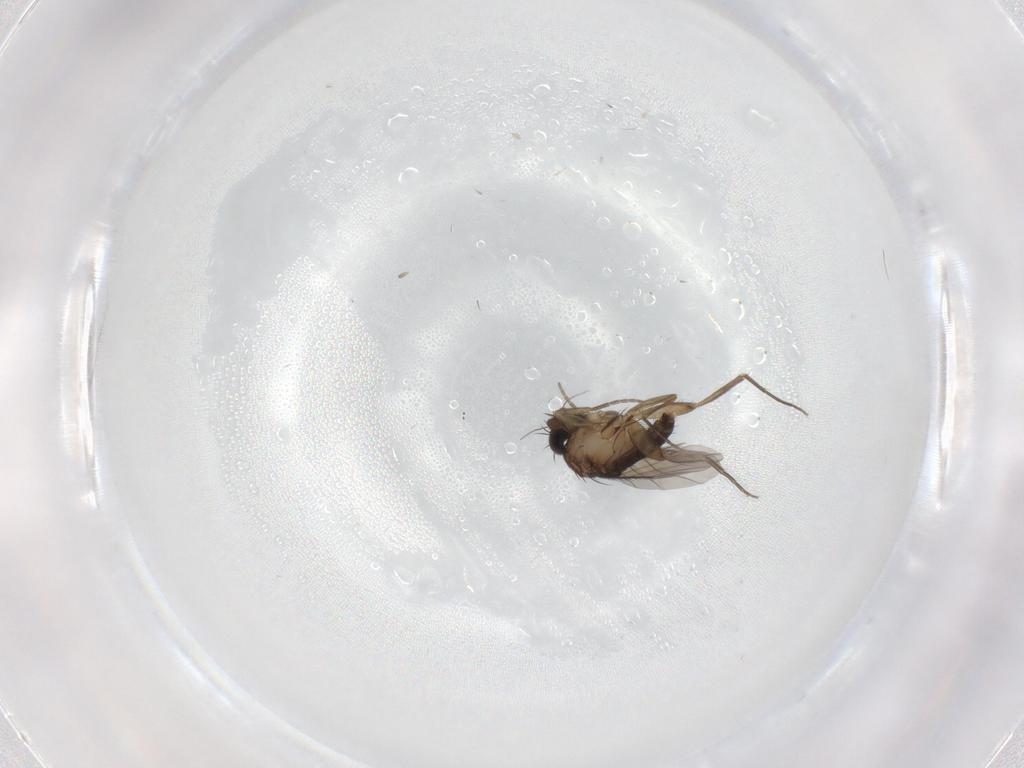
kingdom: Animalia
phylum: Arthropoda
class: Insecta
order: Diptera
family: Phoridae
